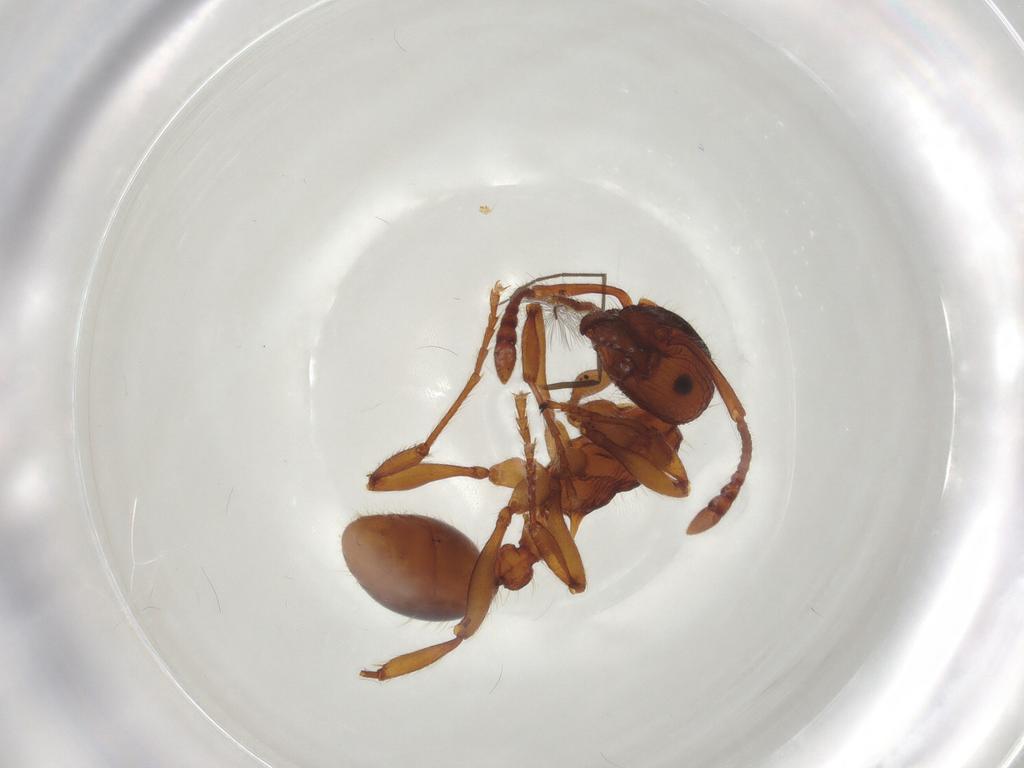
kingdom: Animalia
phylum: Arthropoda
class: Insecta
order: Hymenoptera
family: Formicidae
